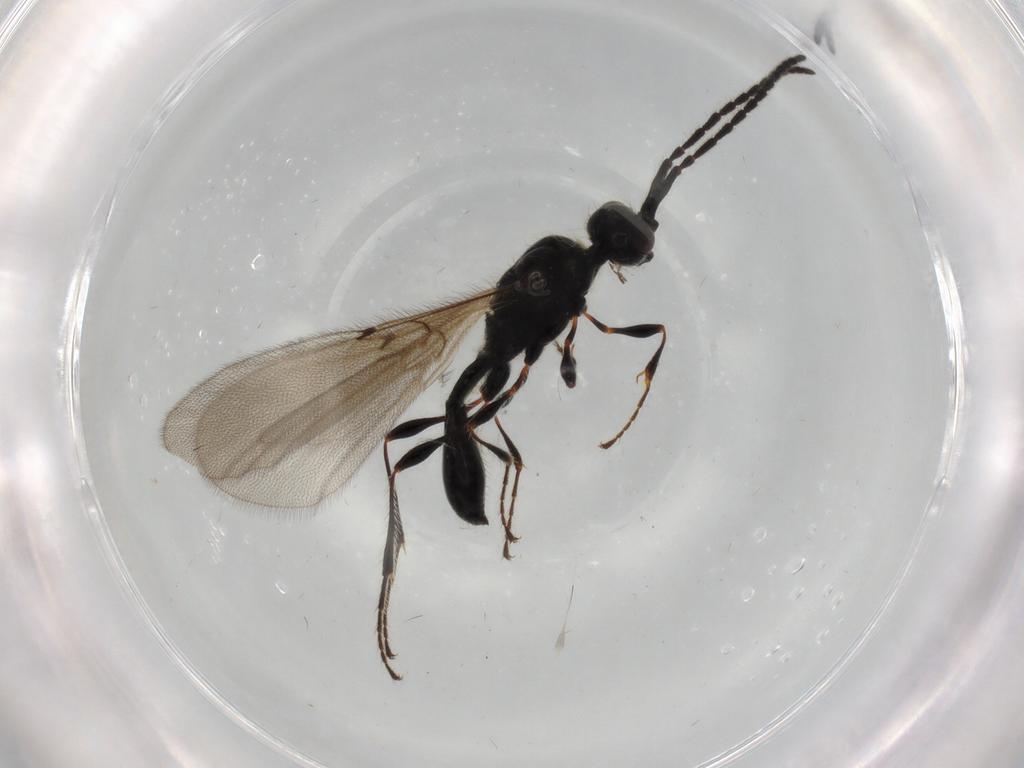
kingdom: Animalia
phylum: Arthropoda
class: Insecta
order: Hymenoptera
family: Diapriidae
